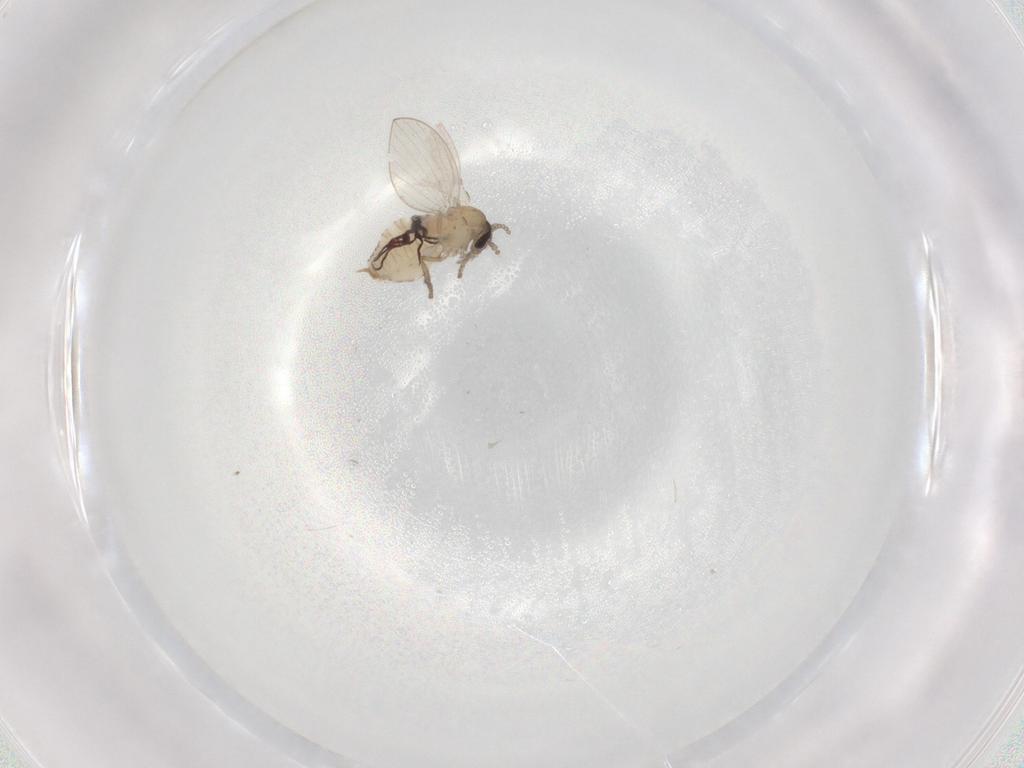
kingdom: Animalia
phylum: Arthropoda
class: Insecta
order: Diptera
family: Psychodidae
